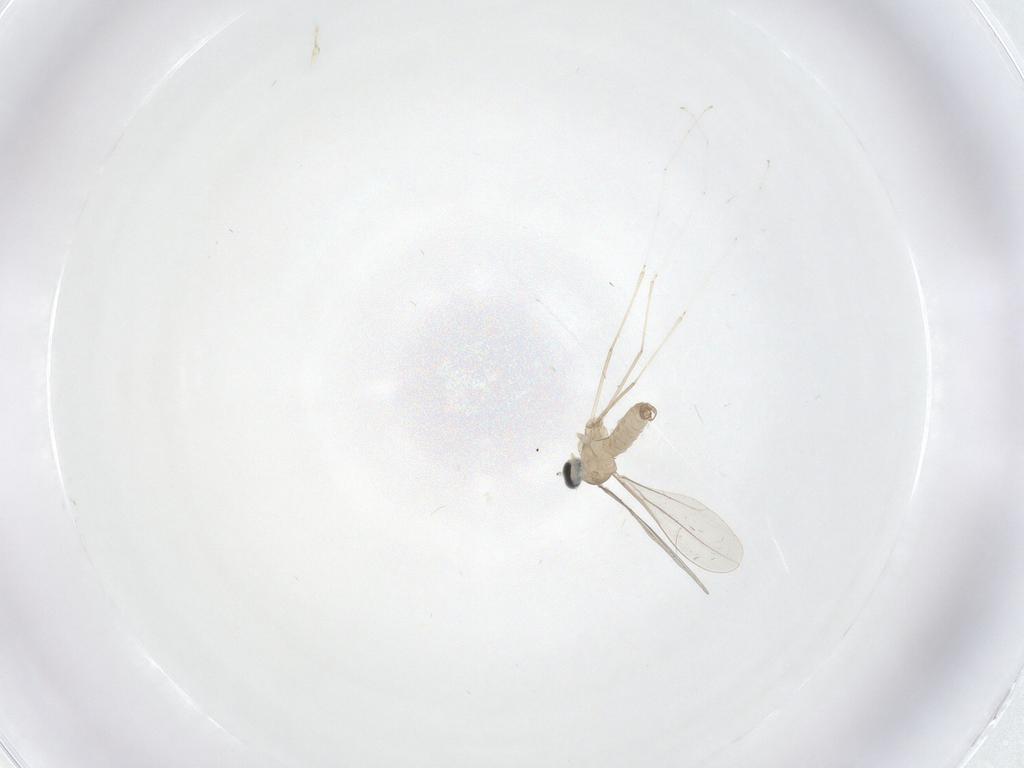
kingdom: Animalia
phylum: Arthropoda
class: Insecta
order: Diptera
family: Cecidomyiidae
